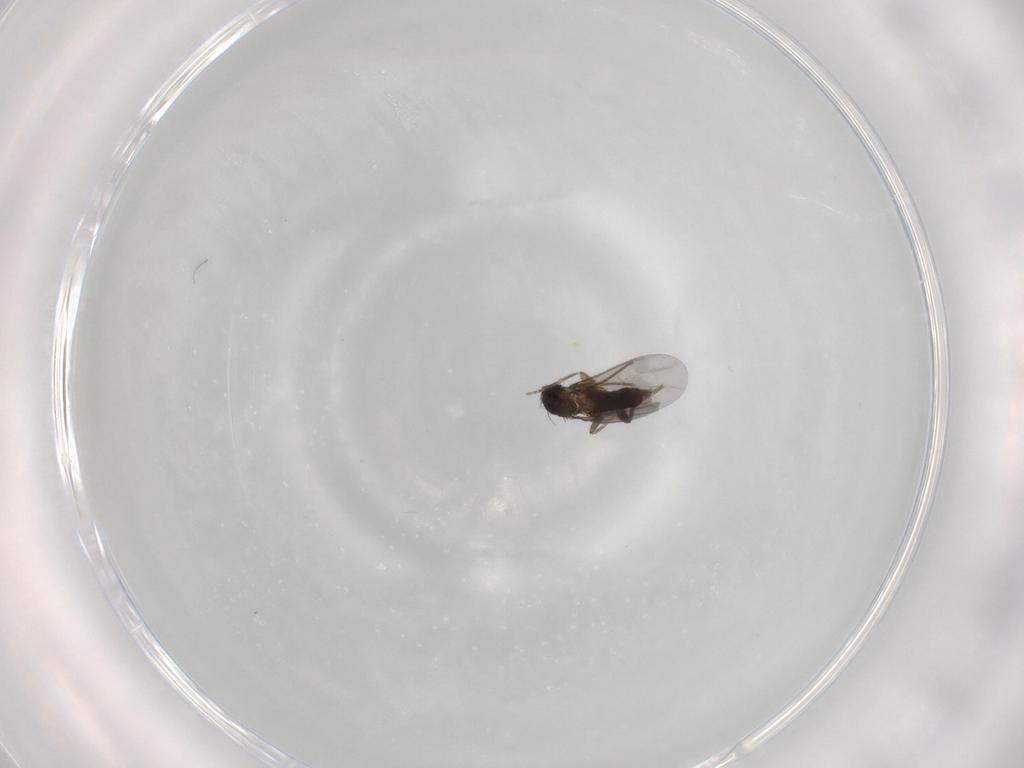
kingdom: Animalia
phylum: Arthropoda
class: Insecta
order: Diptera
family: Phoridae
